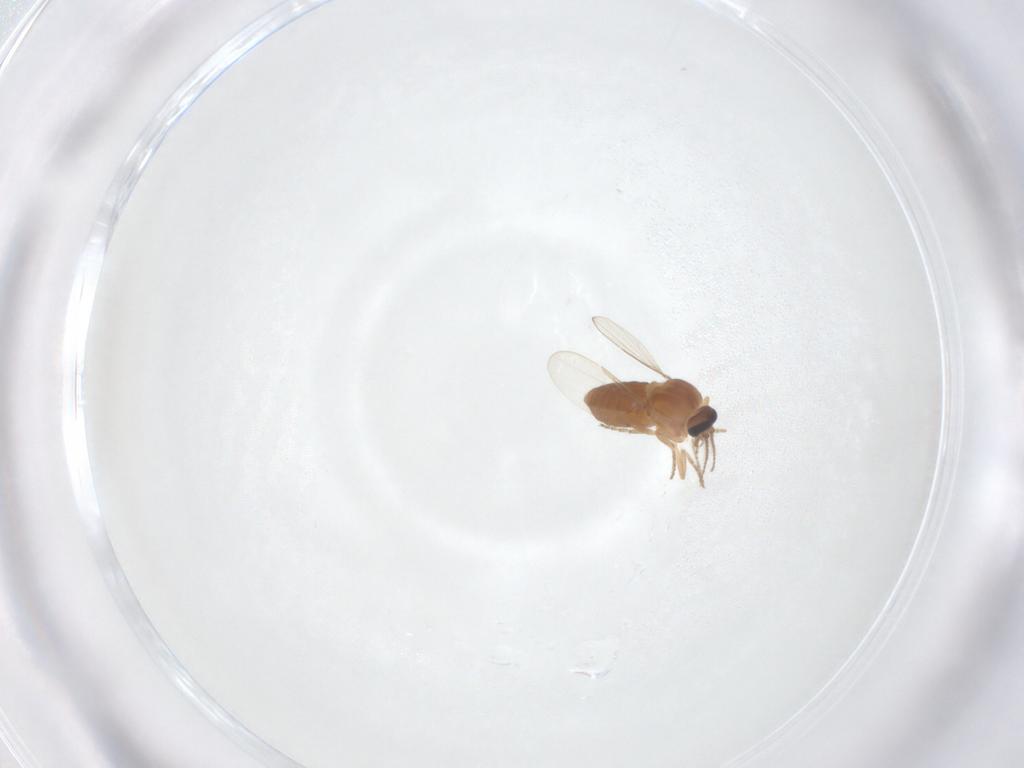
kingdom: Animalia
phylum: Arthropoda
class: Insecta
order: Diptera
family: Ceratopogonidae
